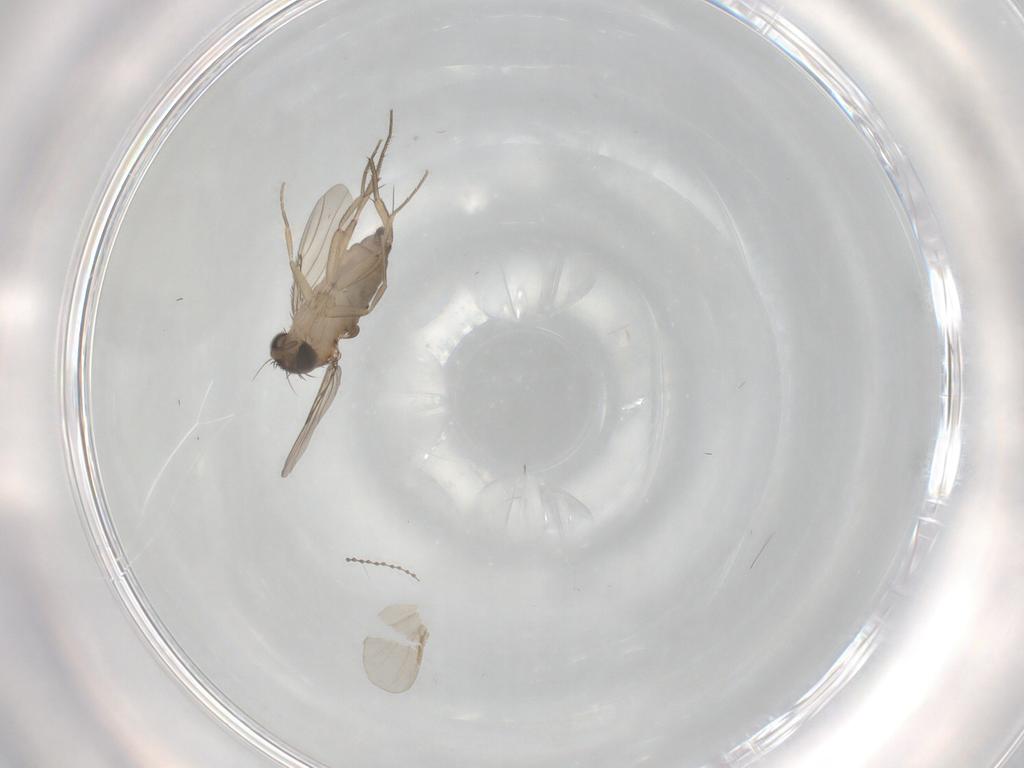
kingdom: Animalia
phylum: Arthropoda
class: Insecta
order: Diptera
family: Phoridae
